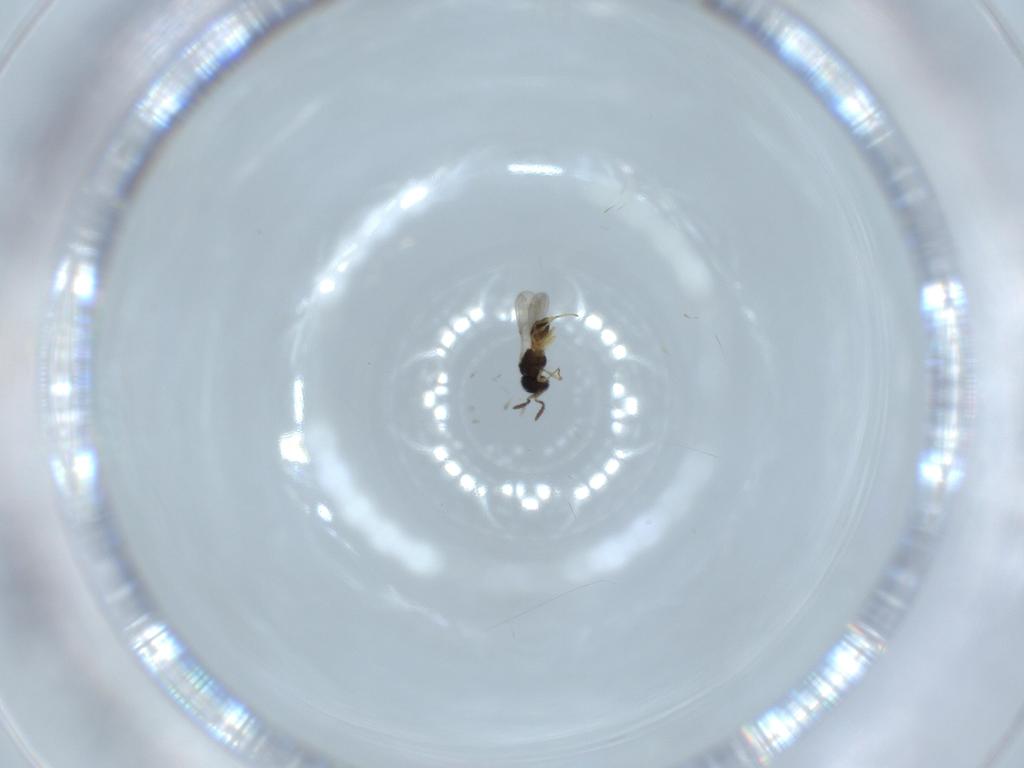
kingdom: Animalia
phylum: Arthropoda
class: Insecta
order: Hymenoptera
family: Scelionidae
